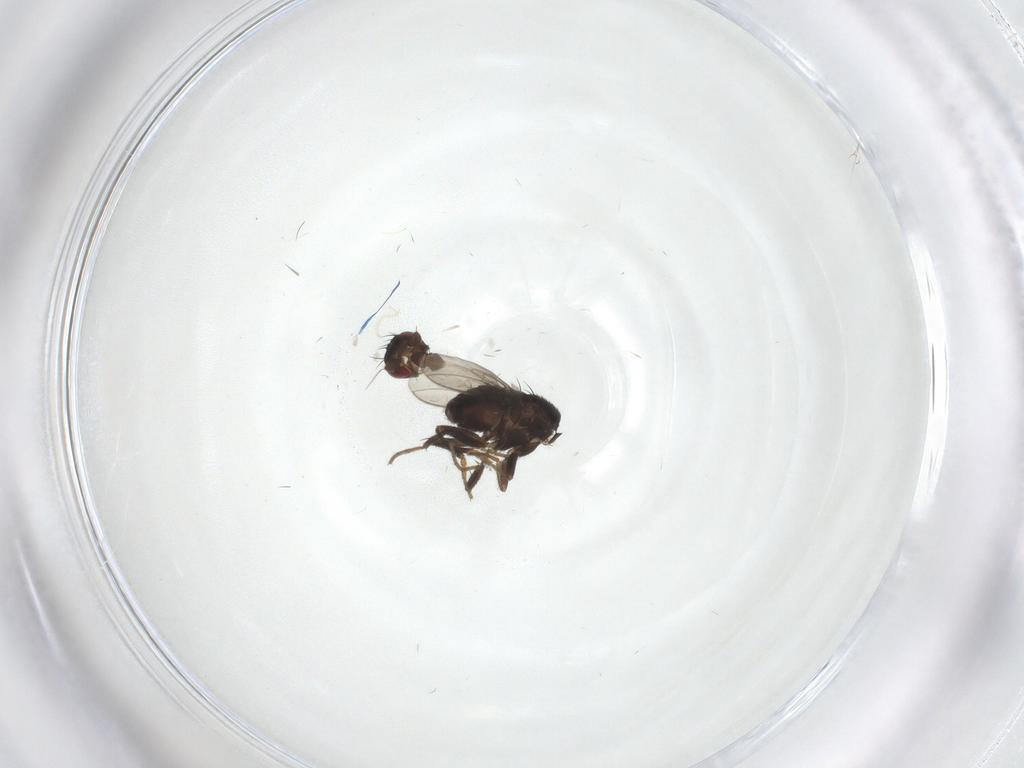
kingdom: Animalia
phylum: Arthropoda
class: Insecta
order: Diptera
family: Sphaeroceridae
